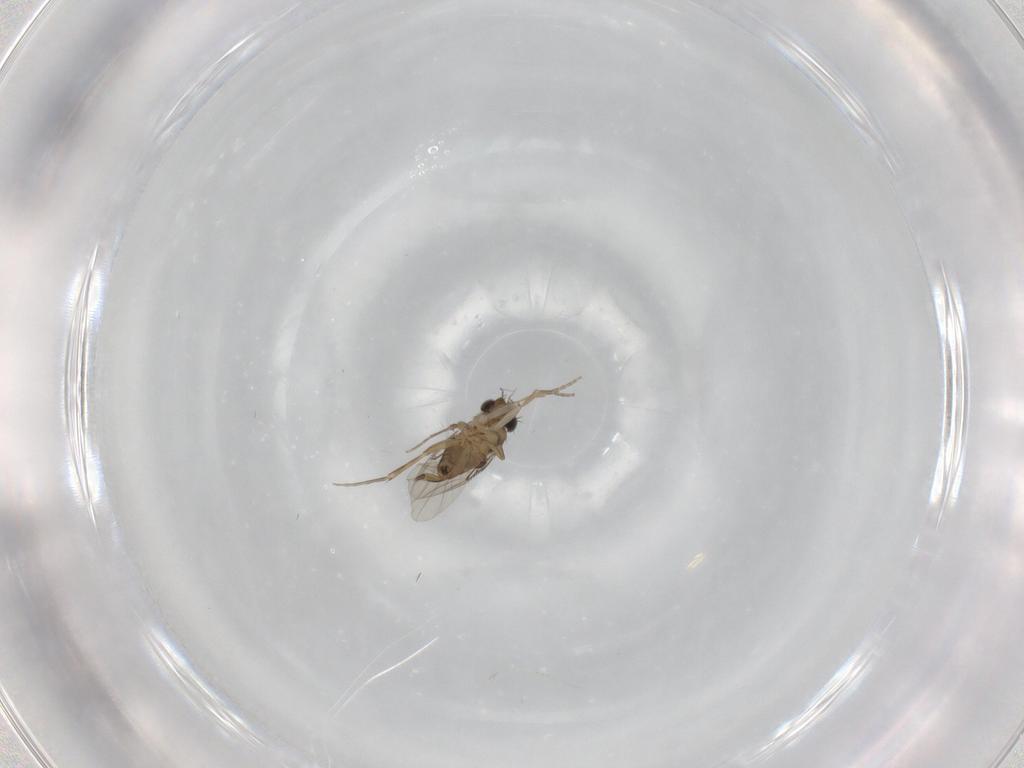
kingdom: Animalia
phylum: Arthropoda
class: Insecta
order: Diptera
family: Phoridae
